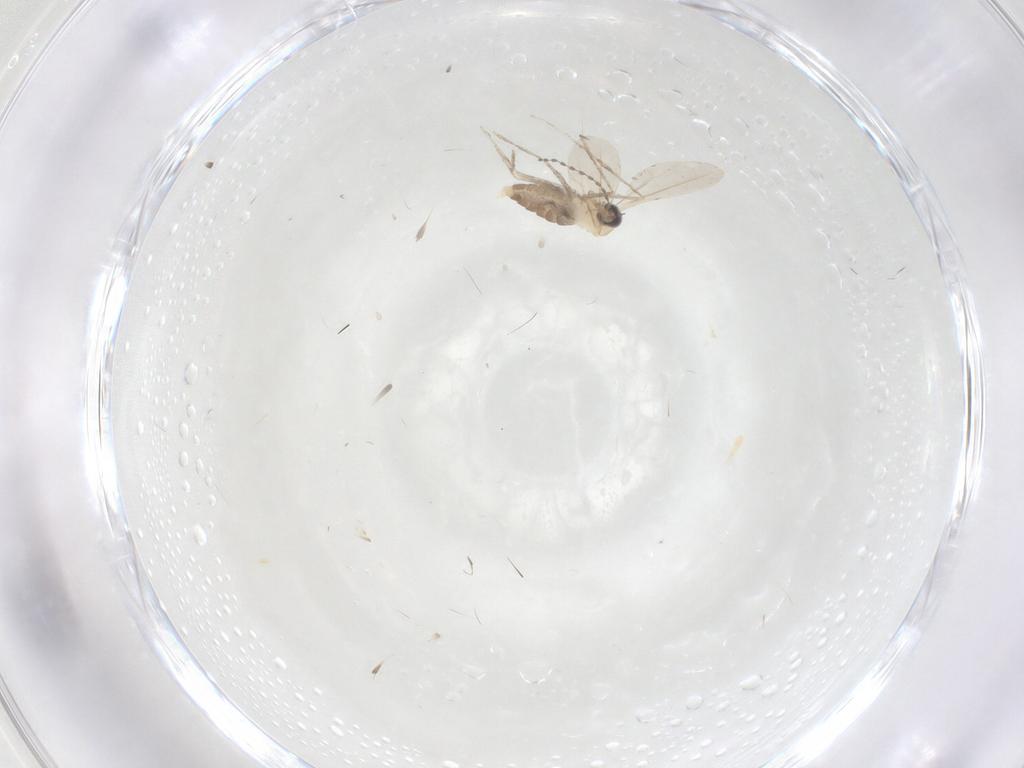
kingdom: Animalia
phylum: Arthropoda
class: Insecta
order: Diptera
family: Cecidomyiidae
